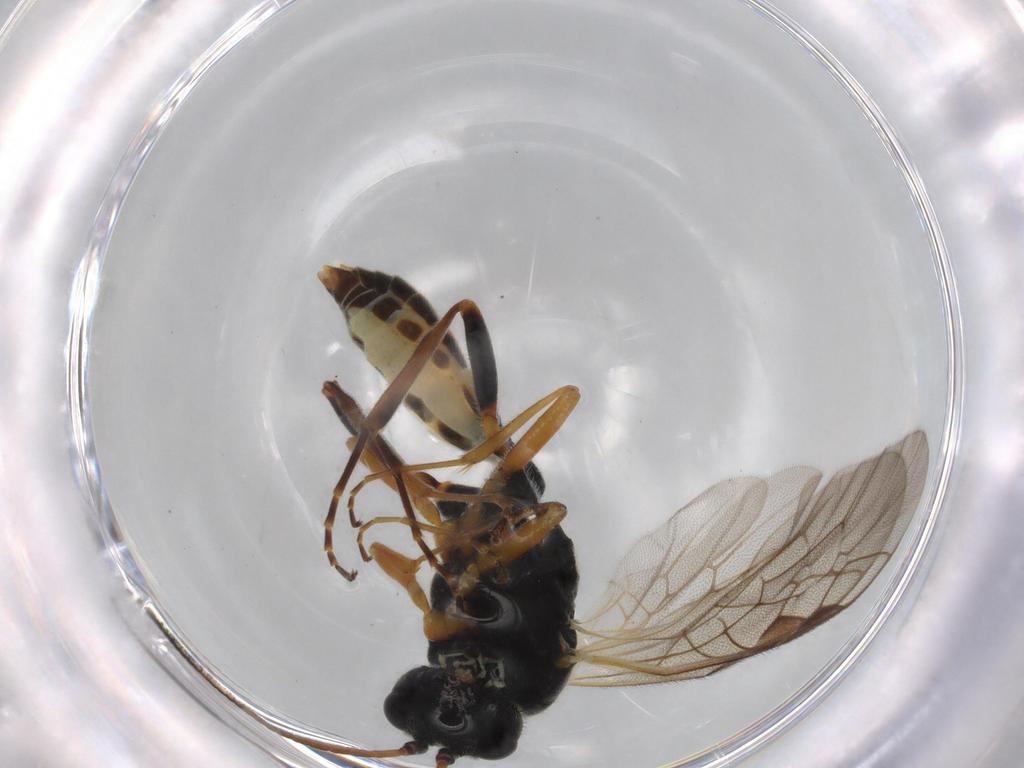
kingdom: Animalia
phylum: Arthropoda
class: Insecta
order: Hymenoptera
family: Ichneumonidae
